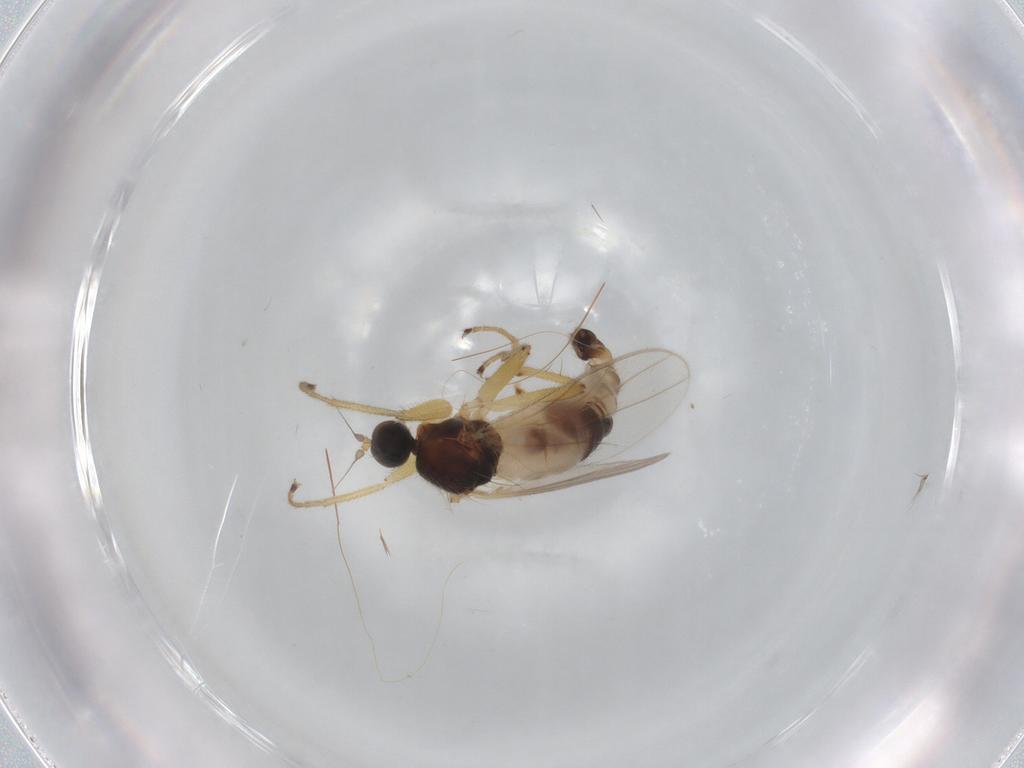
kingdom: Animalia
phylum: Arthropoda
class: Insecta
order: Diptera
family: Hybotidae
